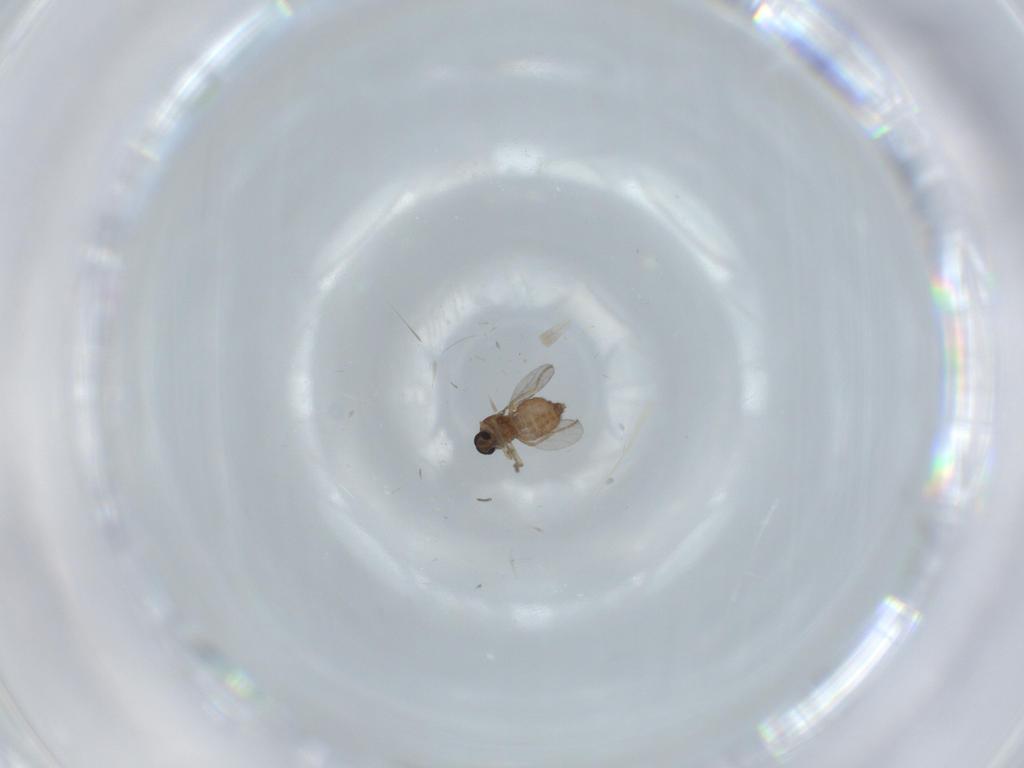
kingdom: Animalia
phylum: Arthropoda
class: Insecta
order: Diptera
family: Ceratopogonidae
